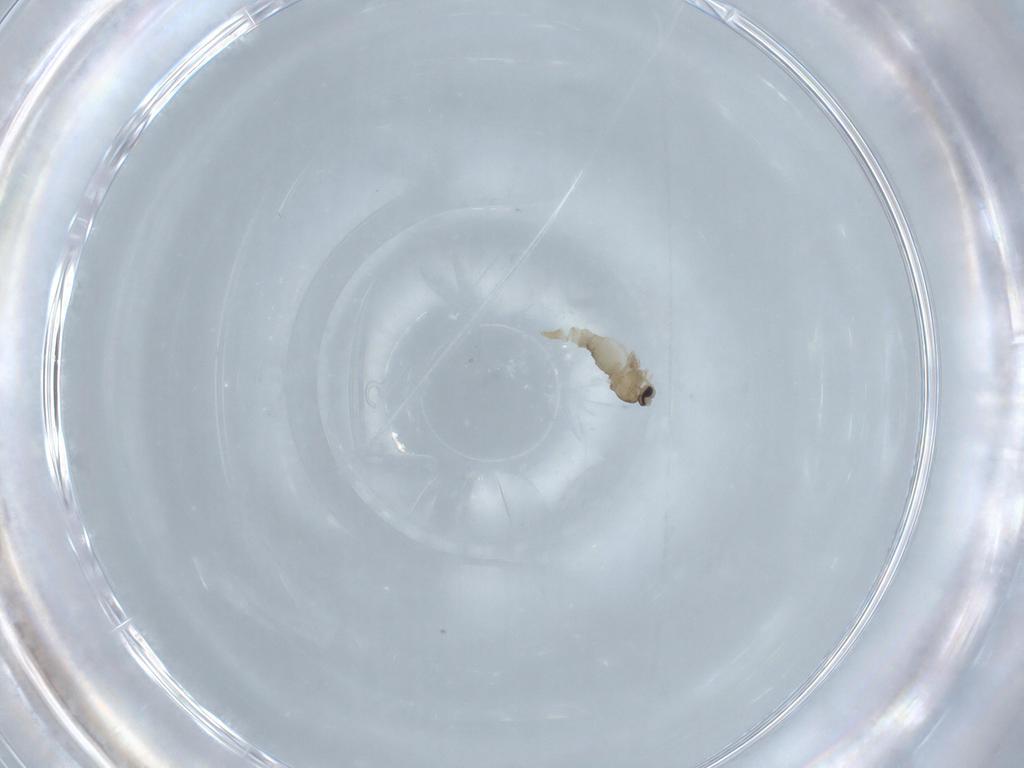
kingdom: Animalia
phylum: Arthropoda
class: Insecta
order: Diptera
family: Cecidomyiidae
